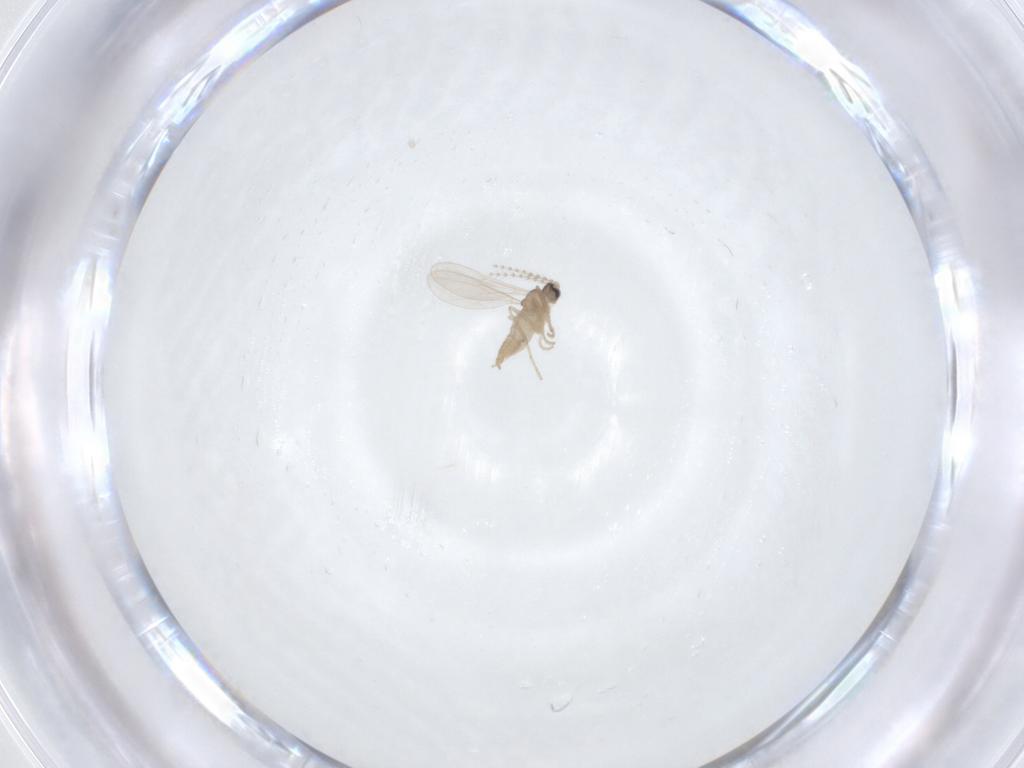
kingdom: Animalia
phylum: Arthropoda
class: Insecta
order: Diptera
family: Cecidomyiidae
